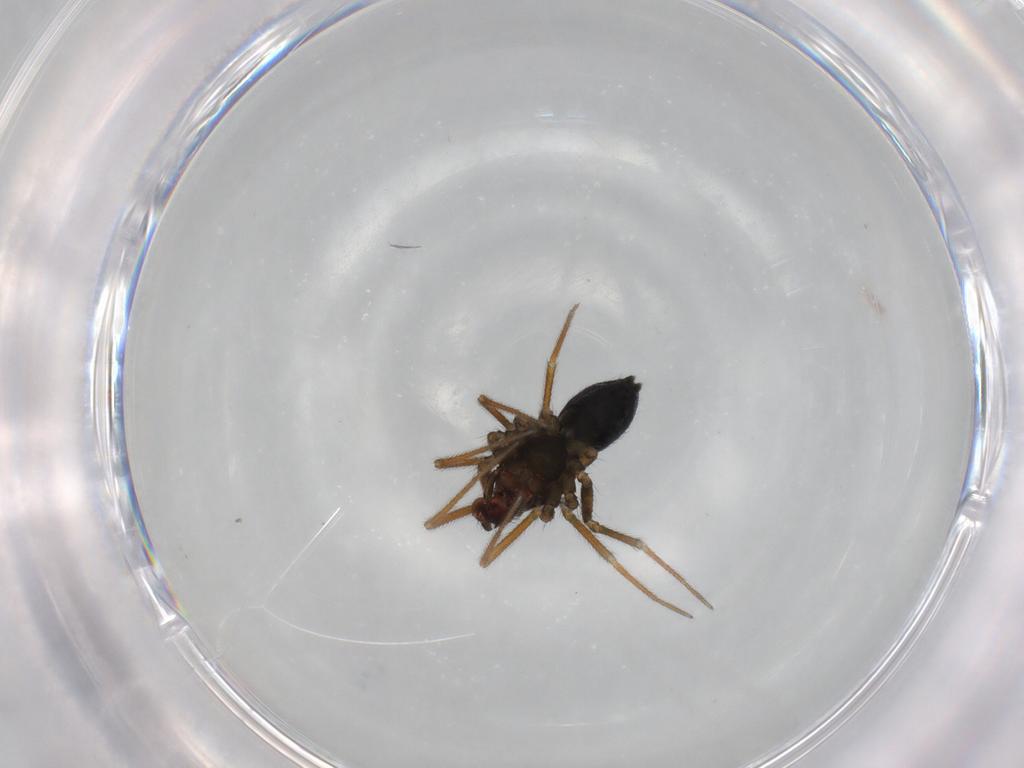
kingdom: Animalia
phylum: Arthropoda
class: Arachnida
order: Araneae
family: Linyphiidae
